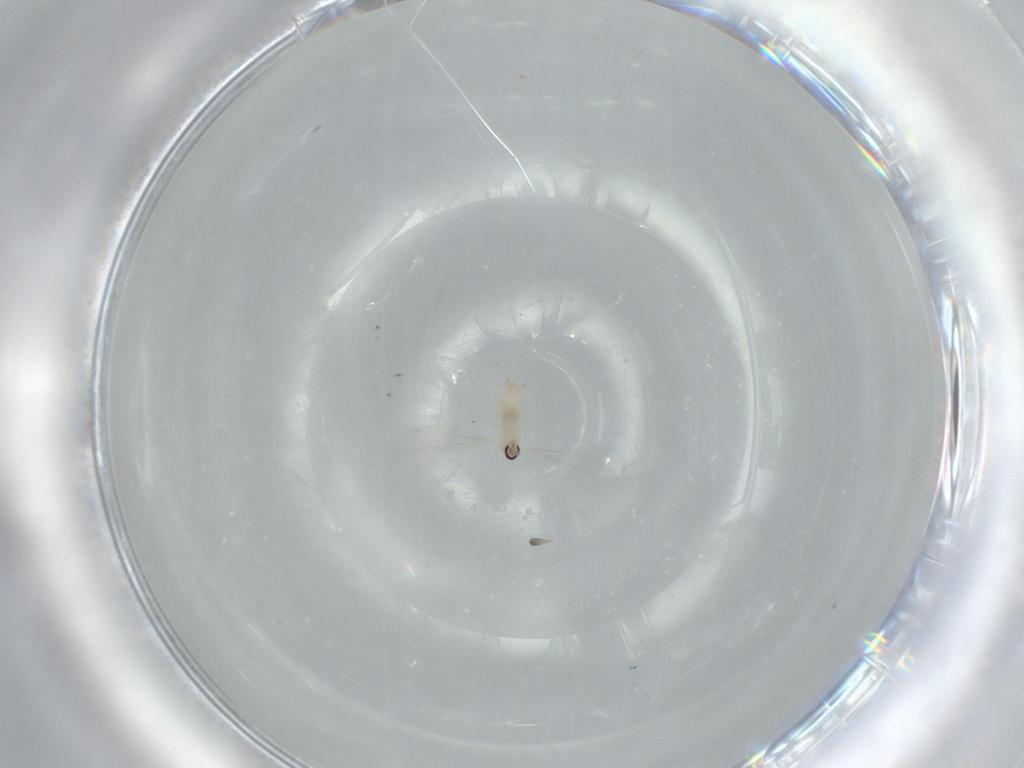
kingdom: Animalia
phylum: Arthropoda
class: Insecta
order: Diptera
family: Cecidomyiidae
